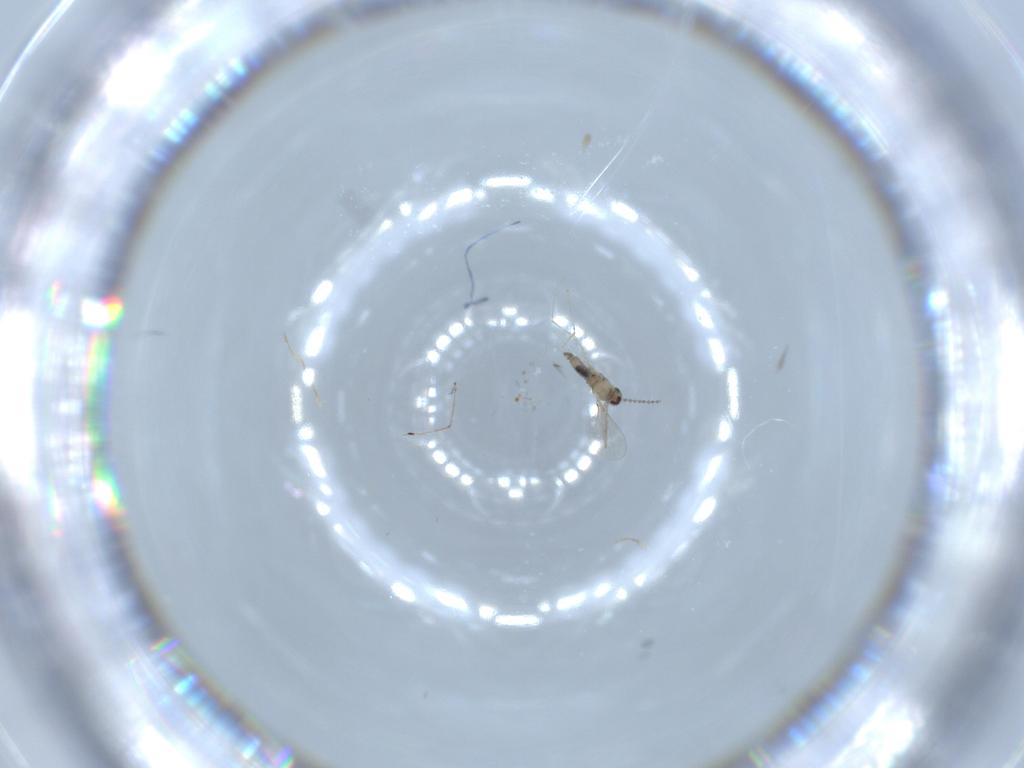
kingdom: Animalia
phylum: Arthropoda
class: Insecta
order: Diptera
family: Cecidomyiidae
